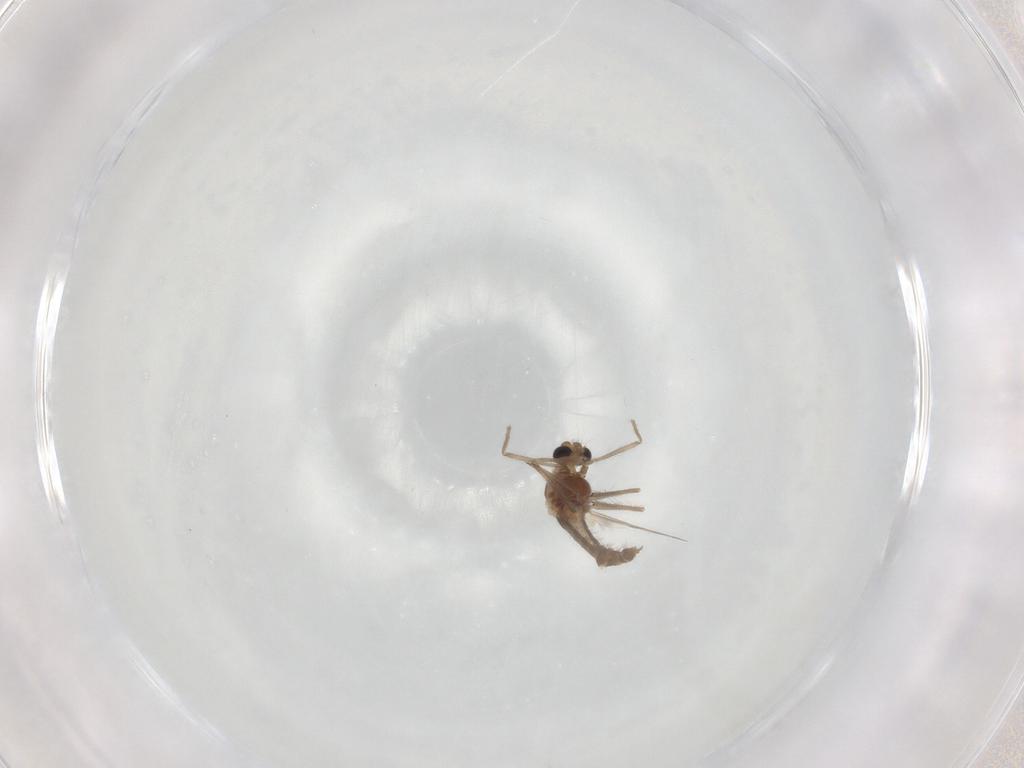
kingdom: Animalia
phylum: Arthropoda
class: Insecta
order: Diptera
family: Chironomidae
